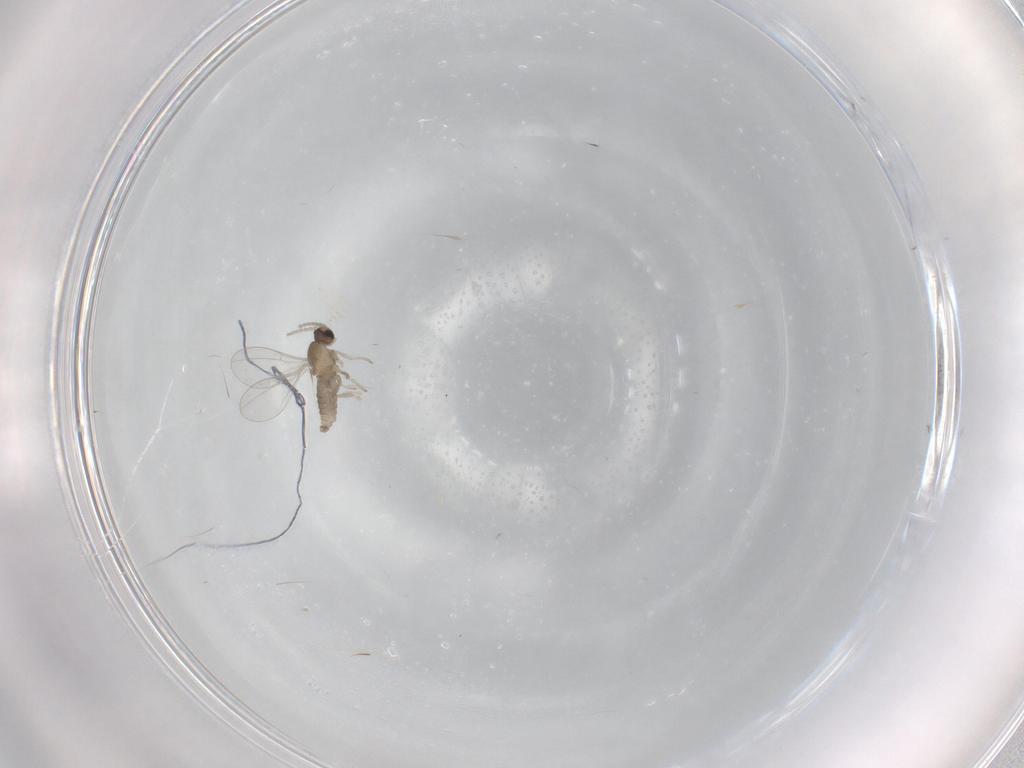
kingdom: Animalia
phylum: Arthropoda
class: Insecta
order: Diptera
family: Cecidomyiidae
